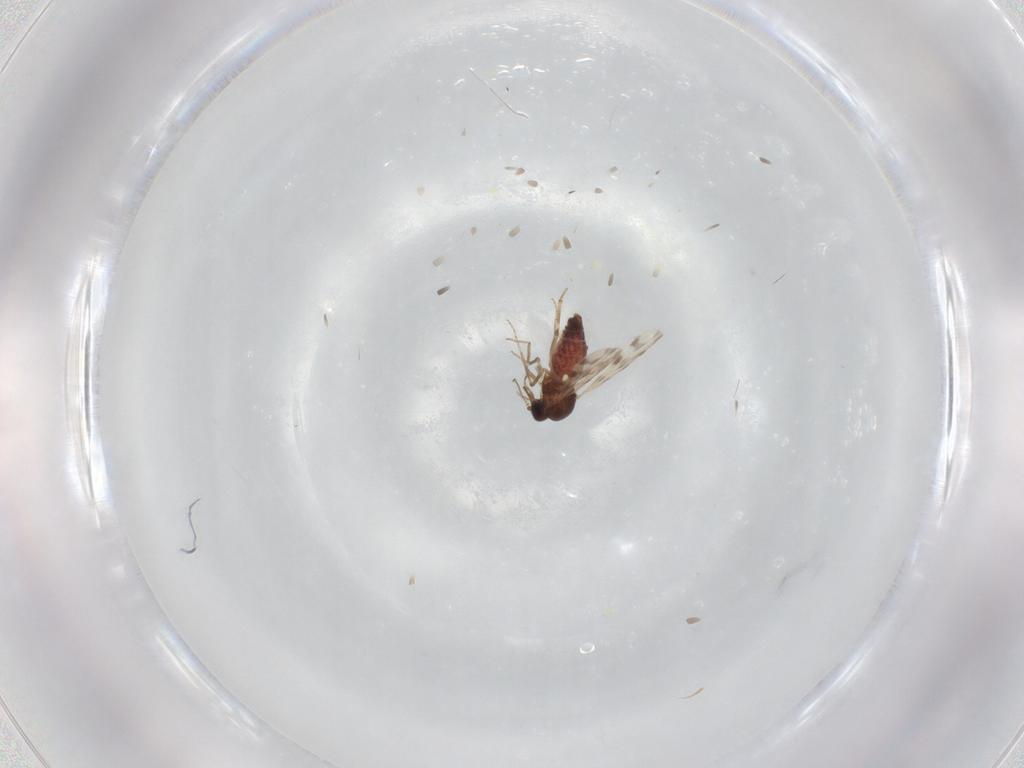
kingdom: Animalia
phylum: Arthropoda
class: Insecta
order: Diptera
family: Ceratopogonidae
